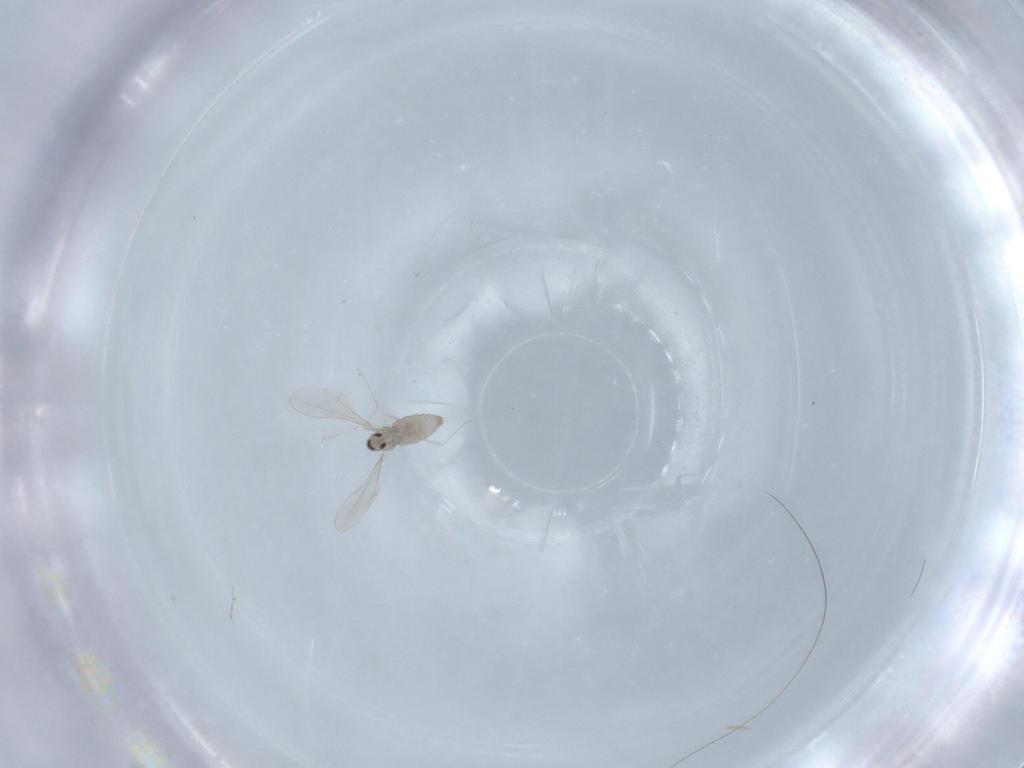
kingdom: Animalia
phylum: Arthropoda
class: Insecta
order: Diptera
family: Cecidomyiidae
